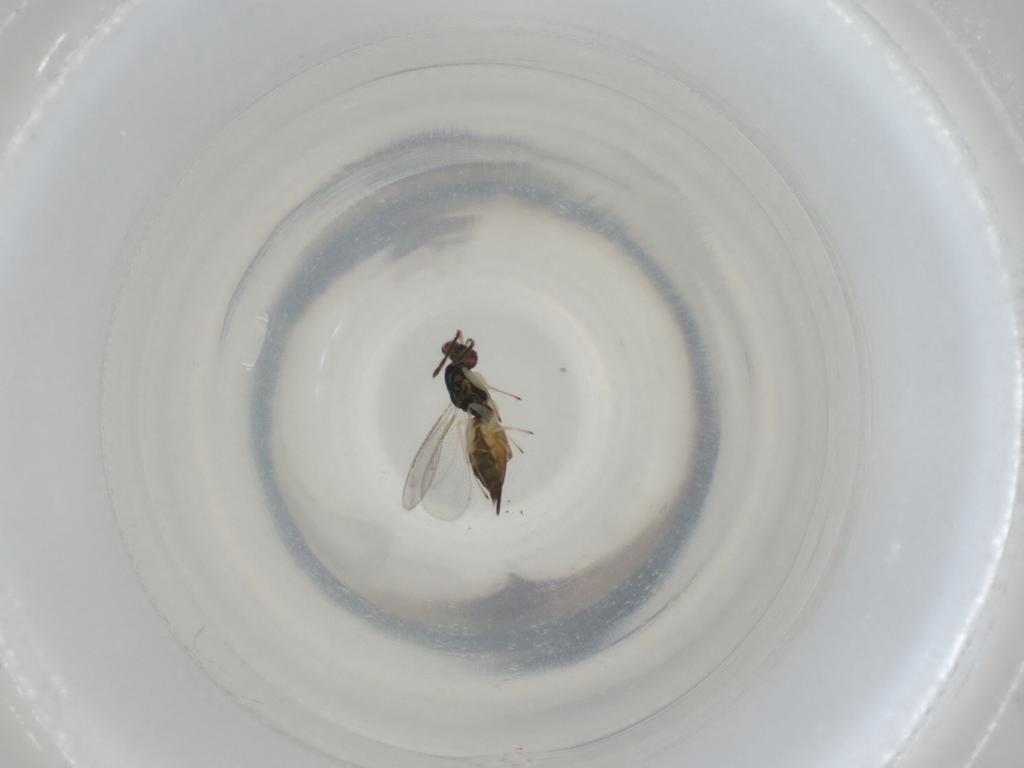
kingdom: Animalia
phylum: Arthropoda
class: Insecta
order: Hymenoptera
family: Eulophidae
